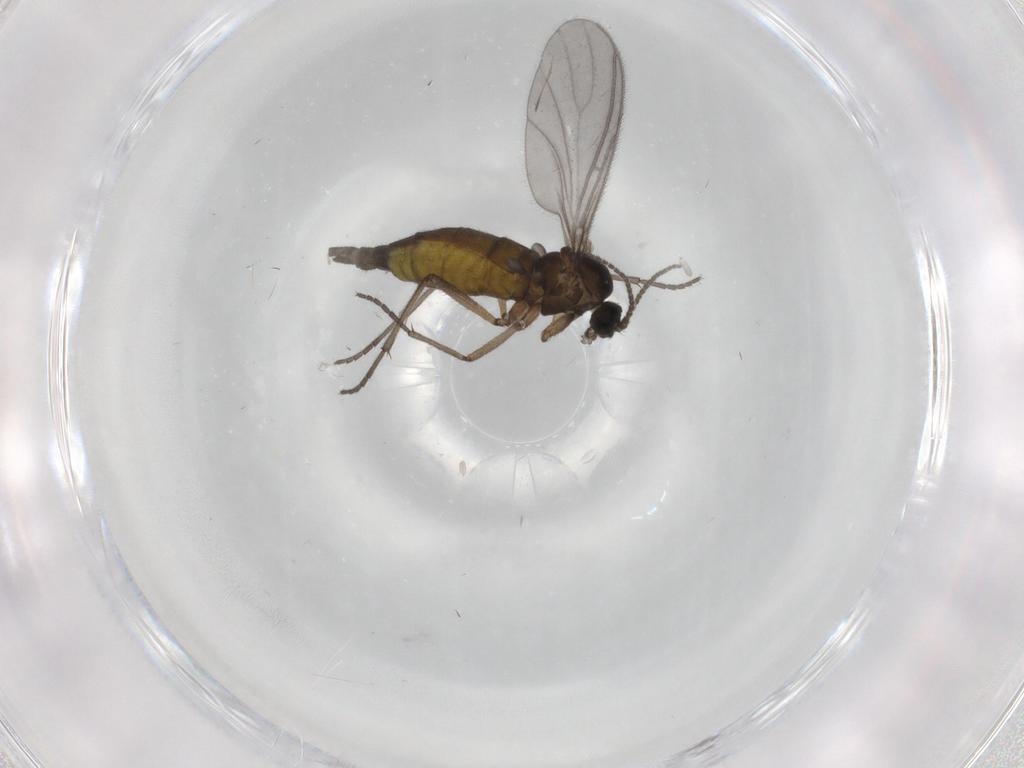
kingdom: Animalia
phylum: Arthropoda
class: Insecta
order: Diptera
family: Sciaridae
